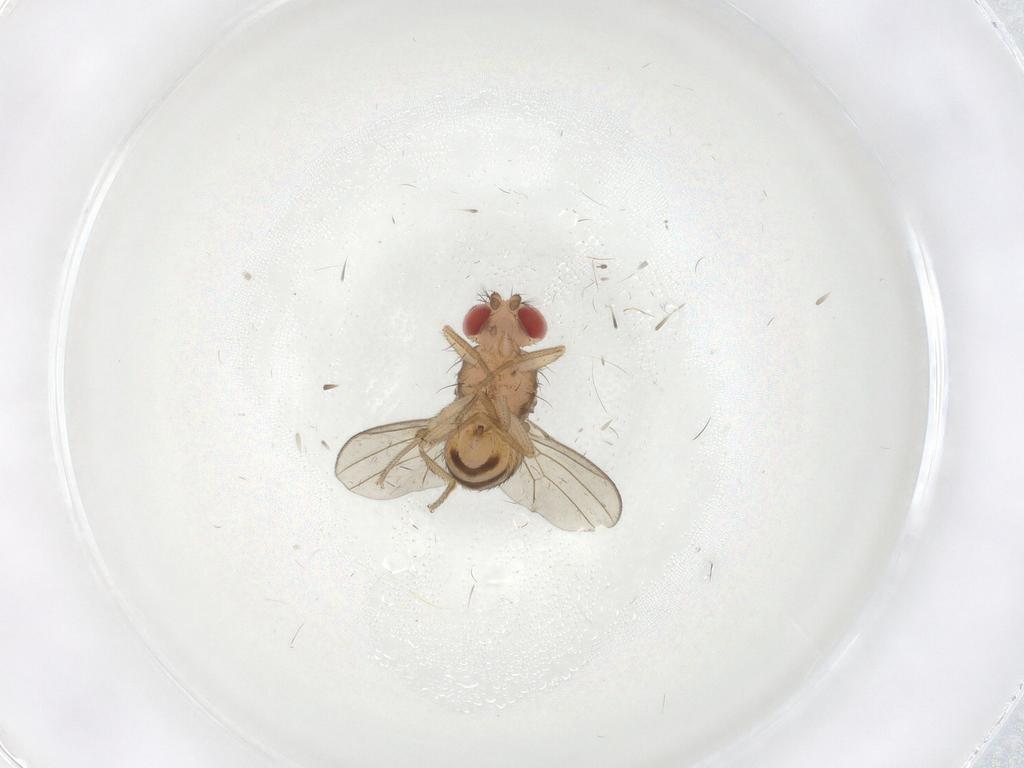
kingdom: Animalia
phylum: Arthropoda
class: Insecta
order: Diptera
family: Drosophilidae
